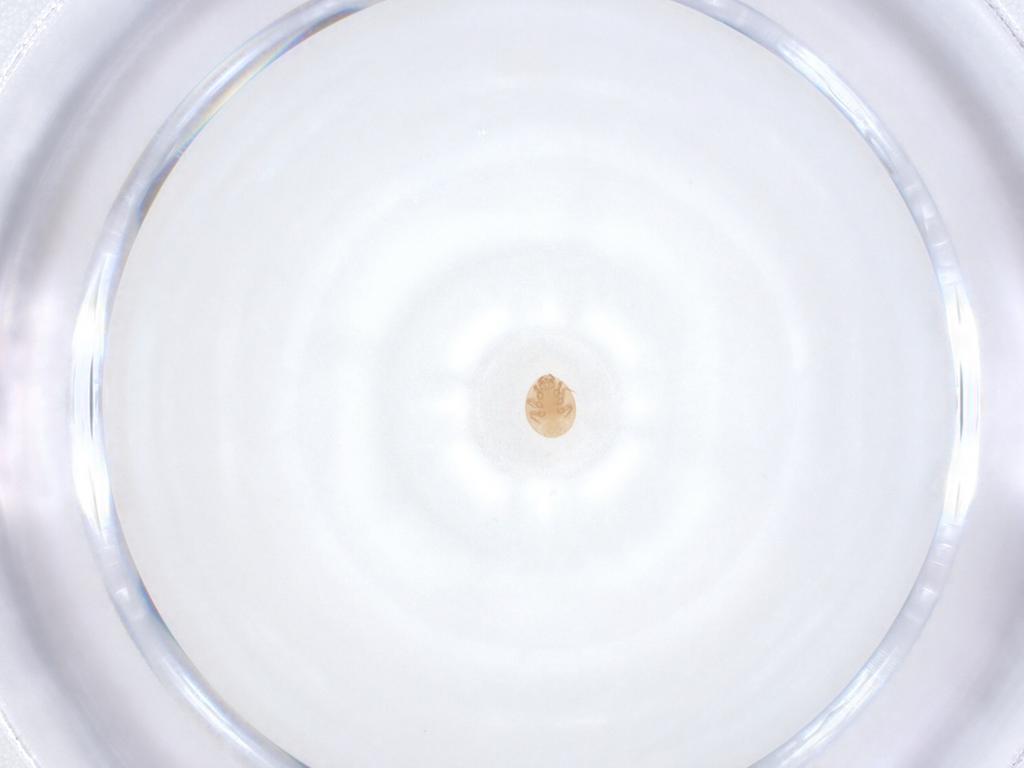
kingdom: Animalia
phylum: Arthropoda
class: Arachnida
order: Mesostigmata
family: Trematuridae
